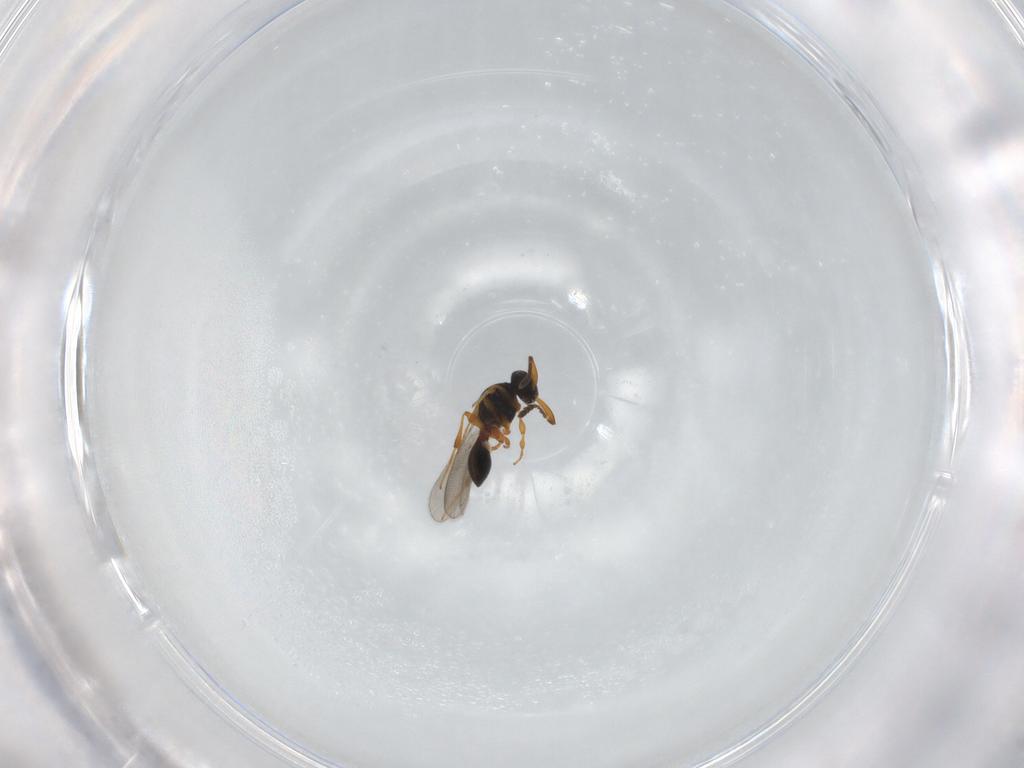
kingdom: Animalia
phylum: Arthropoda
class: Insecta
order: Hymenoptera
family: Platygastridae
